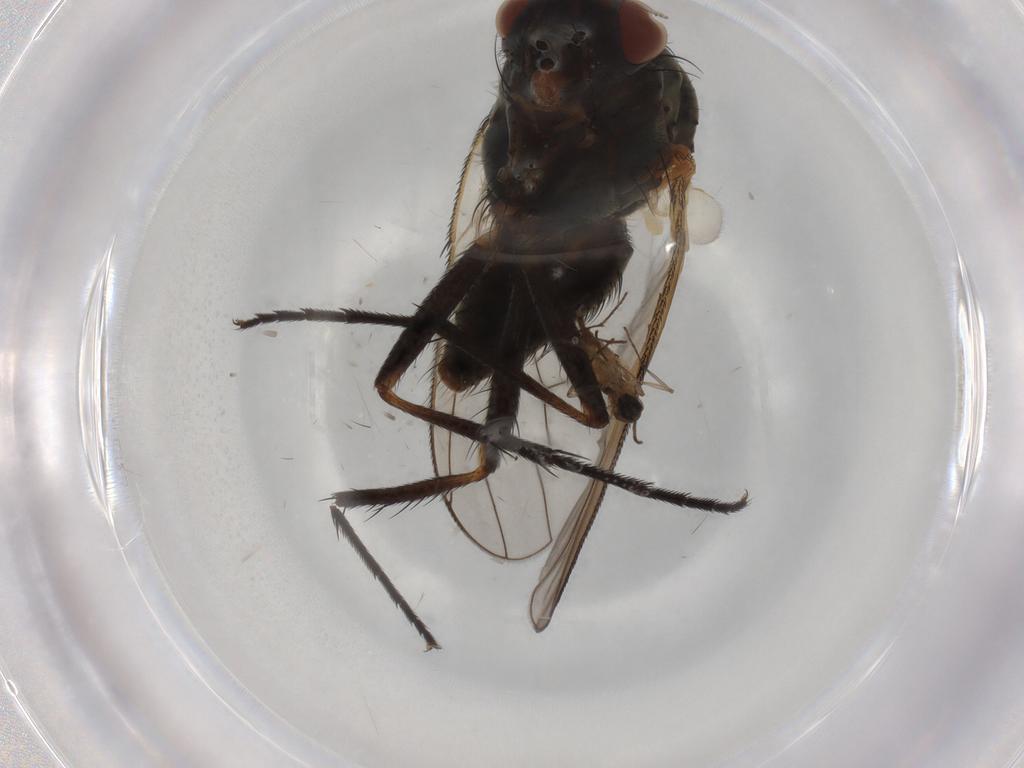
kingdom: Animalia
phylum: Arthropoda
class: Insecta
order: Diptera
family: Anthomyiidae
